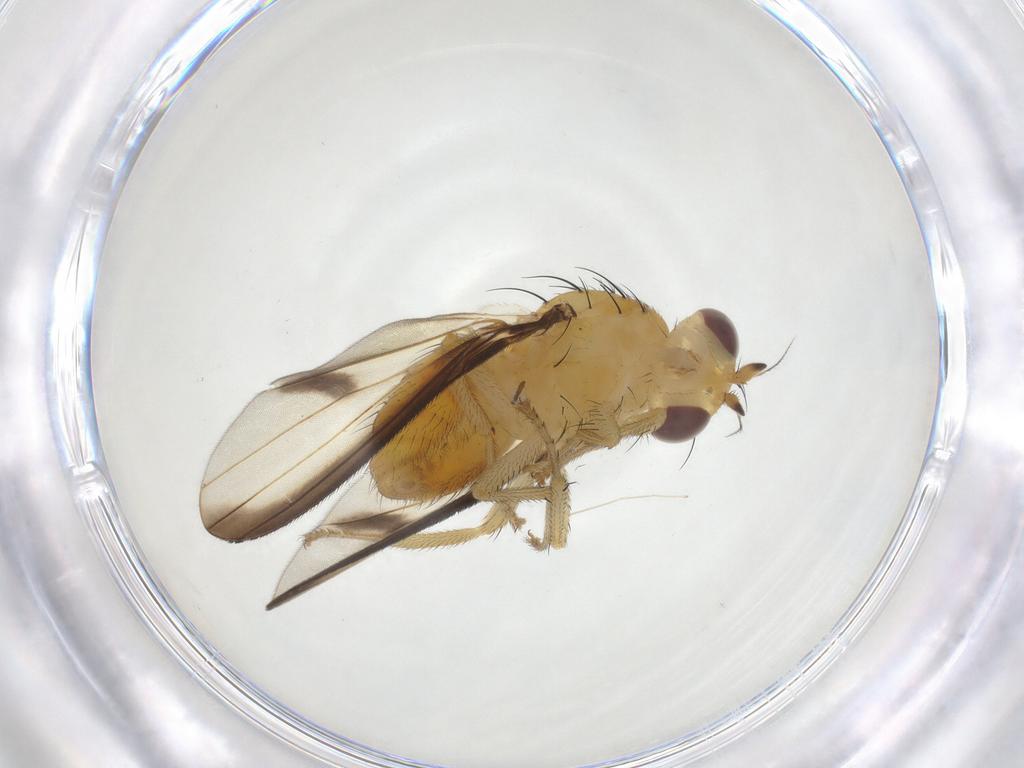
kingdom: Animalia
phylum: Arthropoda
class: Insecta
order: Diptera
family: Lauxaniidae
